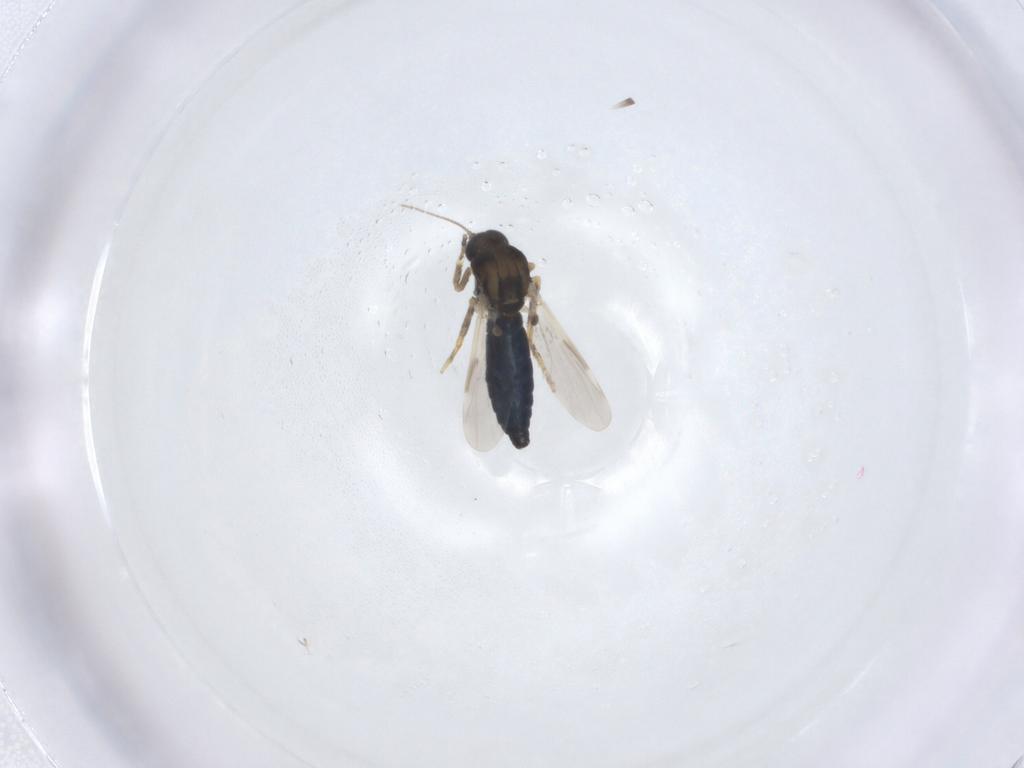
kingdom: Animalia
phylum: Arthropoda
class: Insecta
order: Diptera
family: Ceratopogonidae
